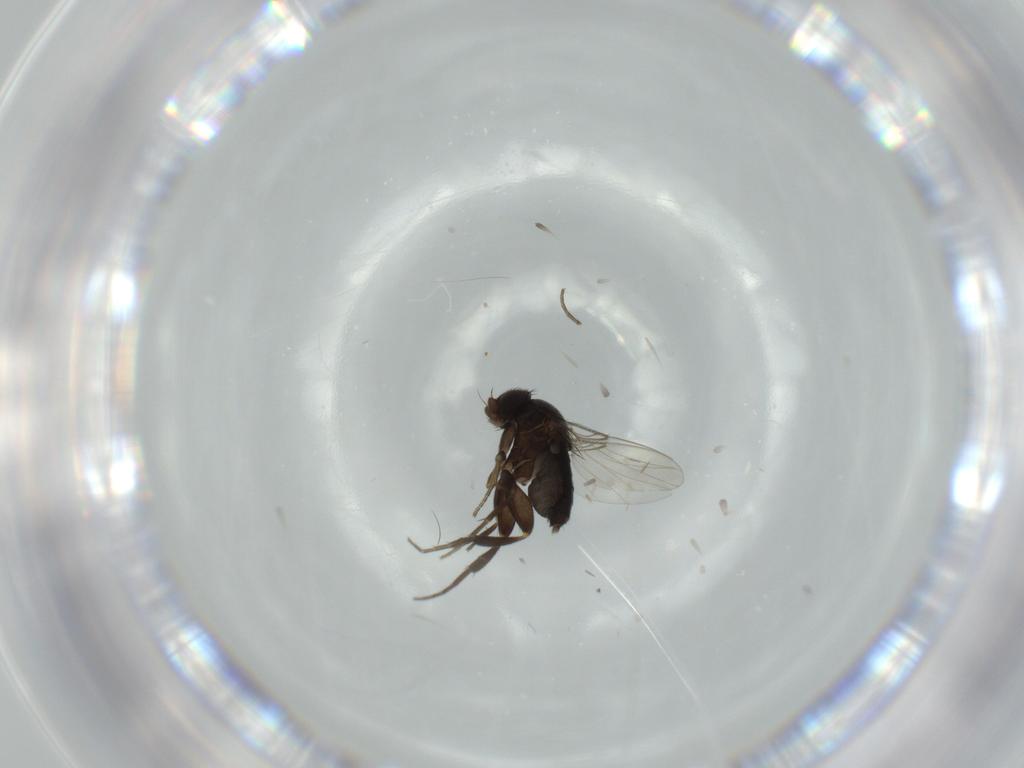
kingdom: Animalia
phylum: Arthropoda
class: Insecta
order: Diptera
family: Phoridae
